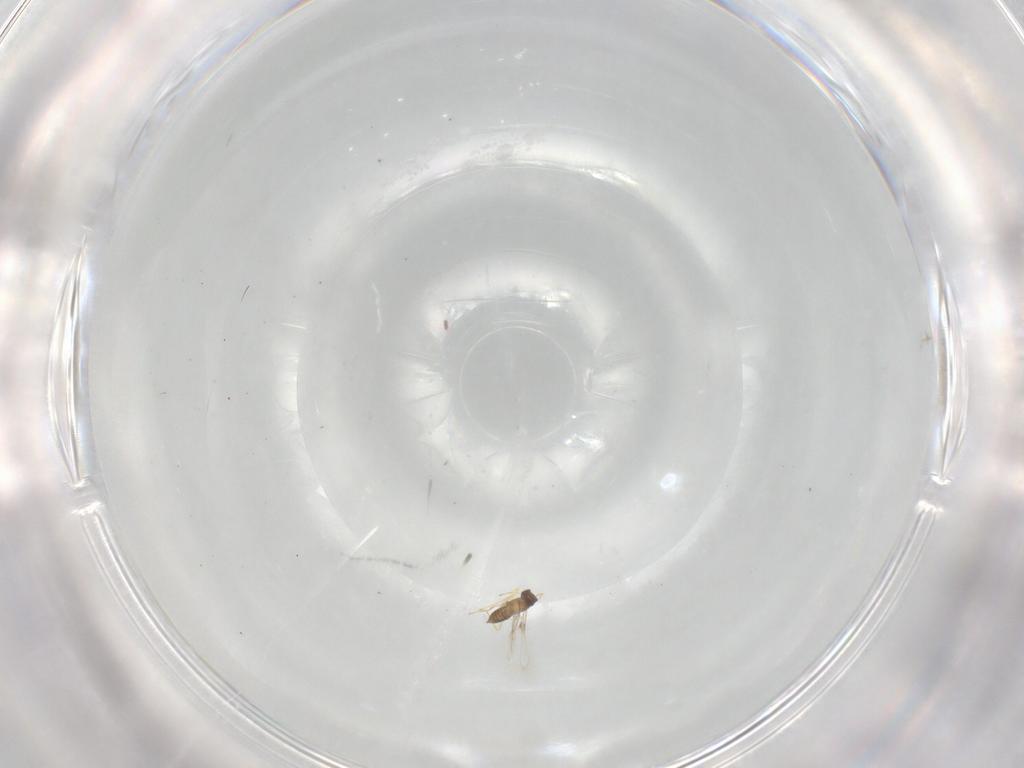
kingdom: Animalia
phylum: Arthropoda
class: Insecta
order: Hymenoptera
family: Mymaridae
